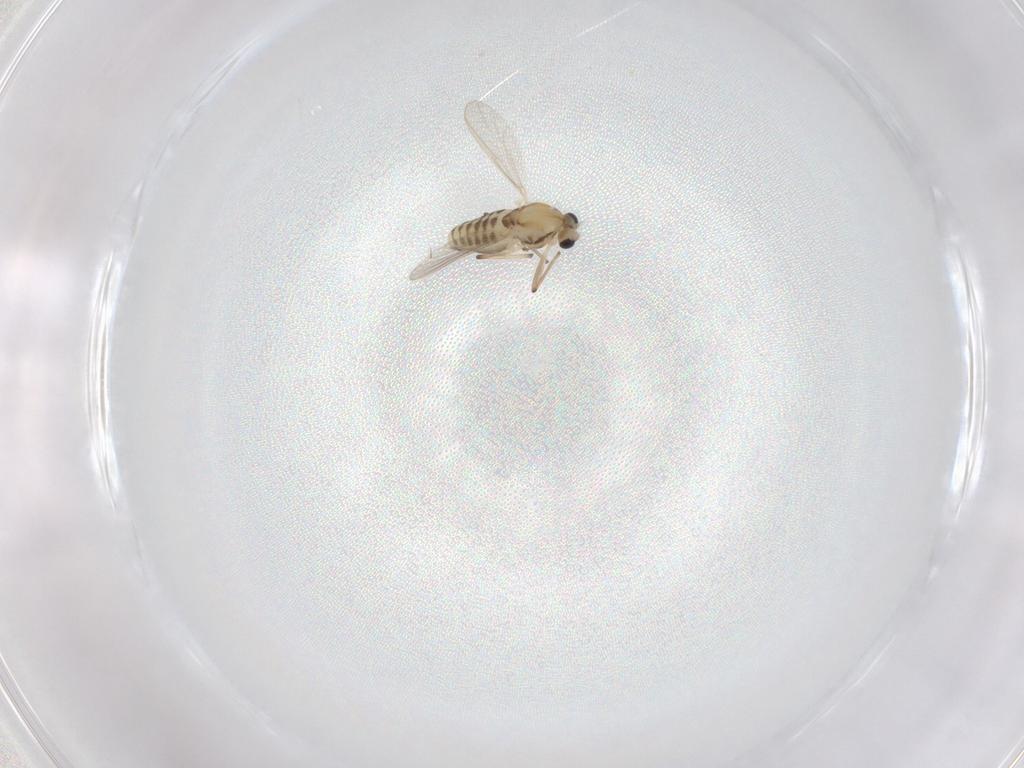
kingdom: Animalia
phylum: Arthropoda
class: Insecta
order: Diptera
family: Chironomidae
